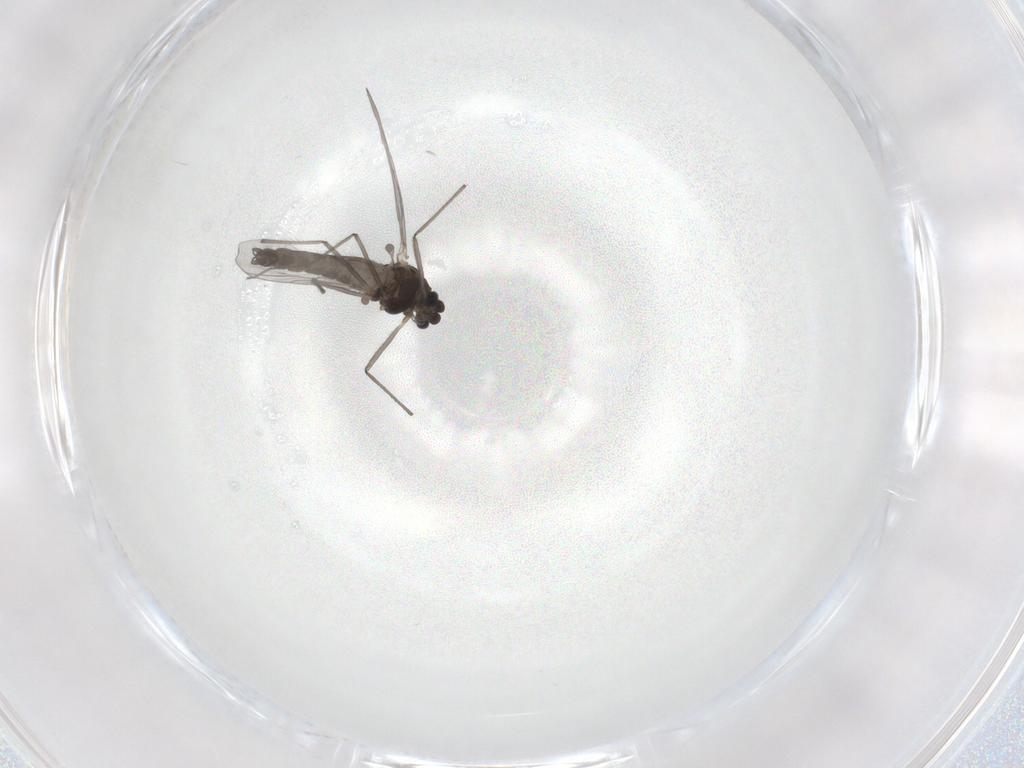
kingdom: Animalia
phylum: Arthropoda
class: Insecta
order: Diptera
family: Chironomidae
